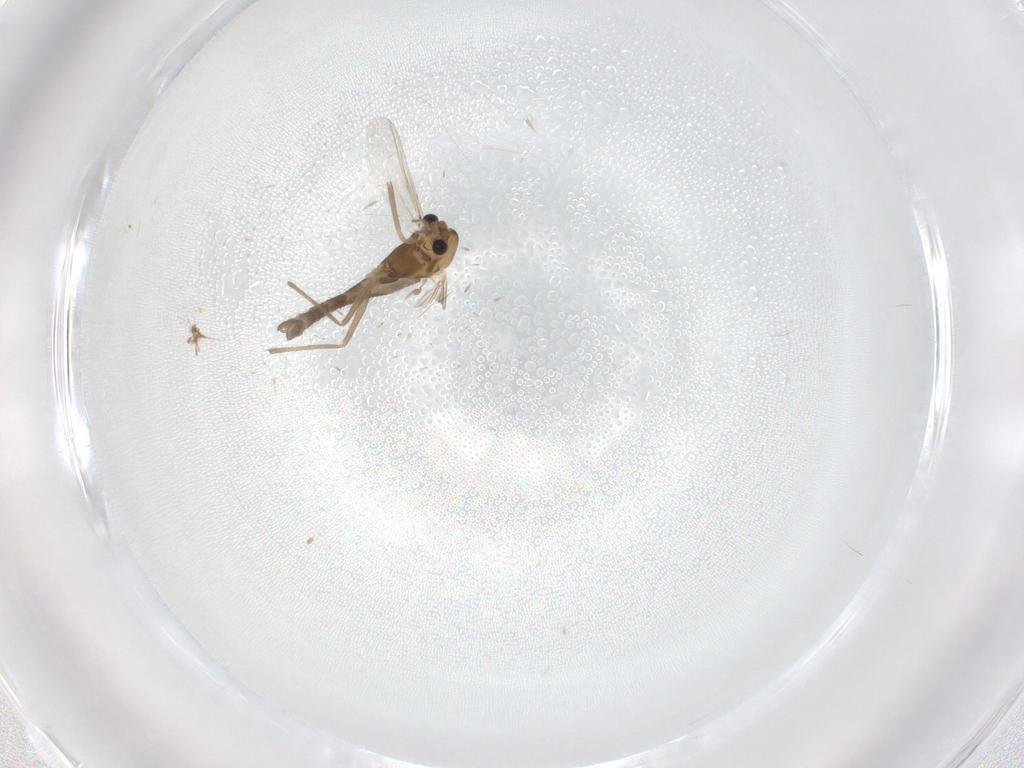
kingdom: Animalia
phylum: Arthropoda
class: Insecta
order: Diptera
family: Chironomidae
